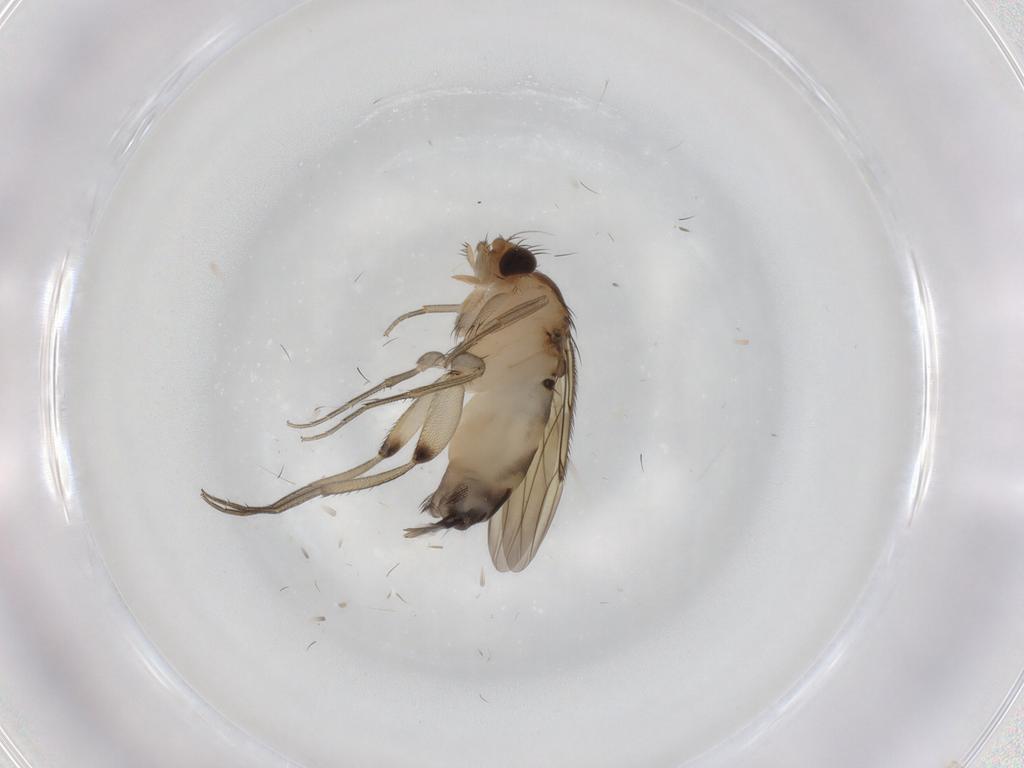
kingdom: Animalia
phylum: Arthropoda
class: Insecta
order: Diptera
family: Phoridae
